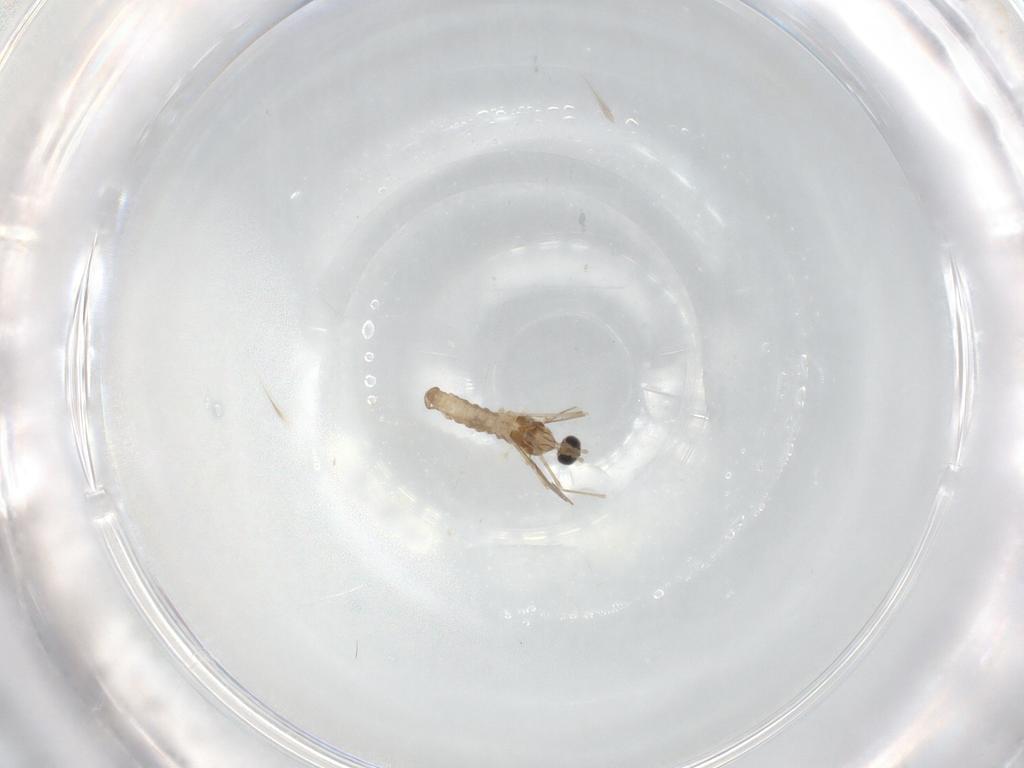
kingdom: Animalia
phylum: Arthropoda
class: Insecta
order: Diptera
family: Cecidomyiidae
